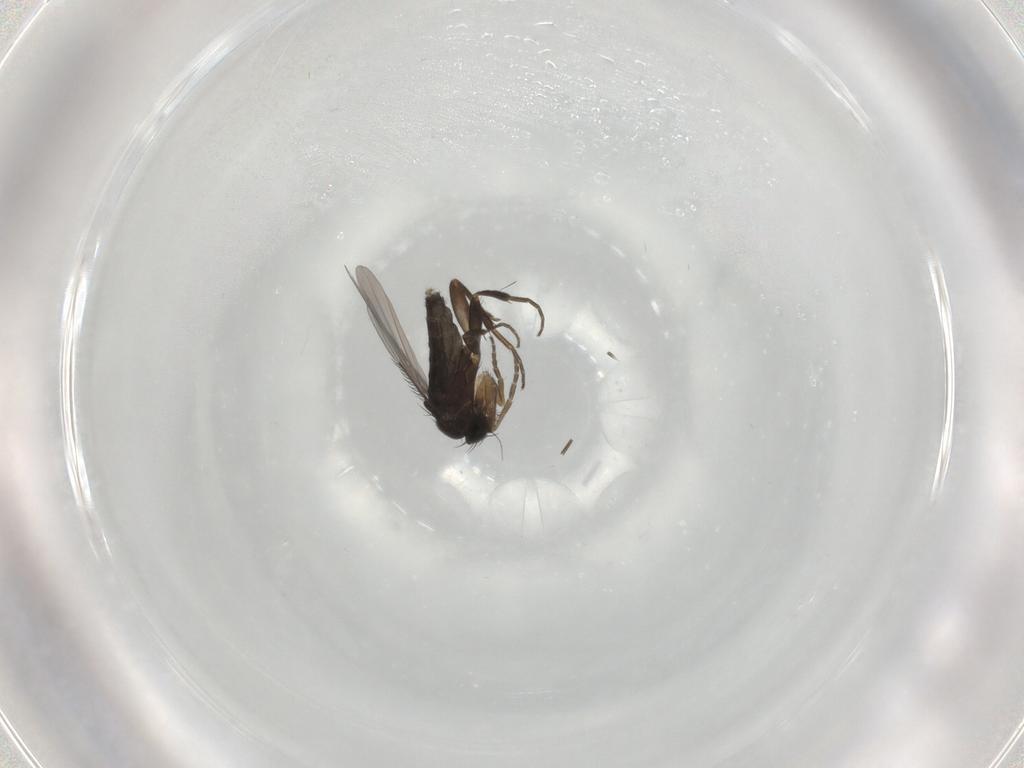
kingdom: Animalia
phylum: Arthropoda
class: Insecta
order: Diptera
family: Phoridae
